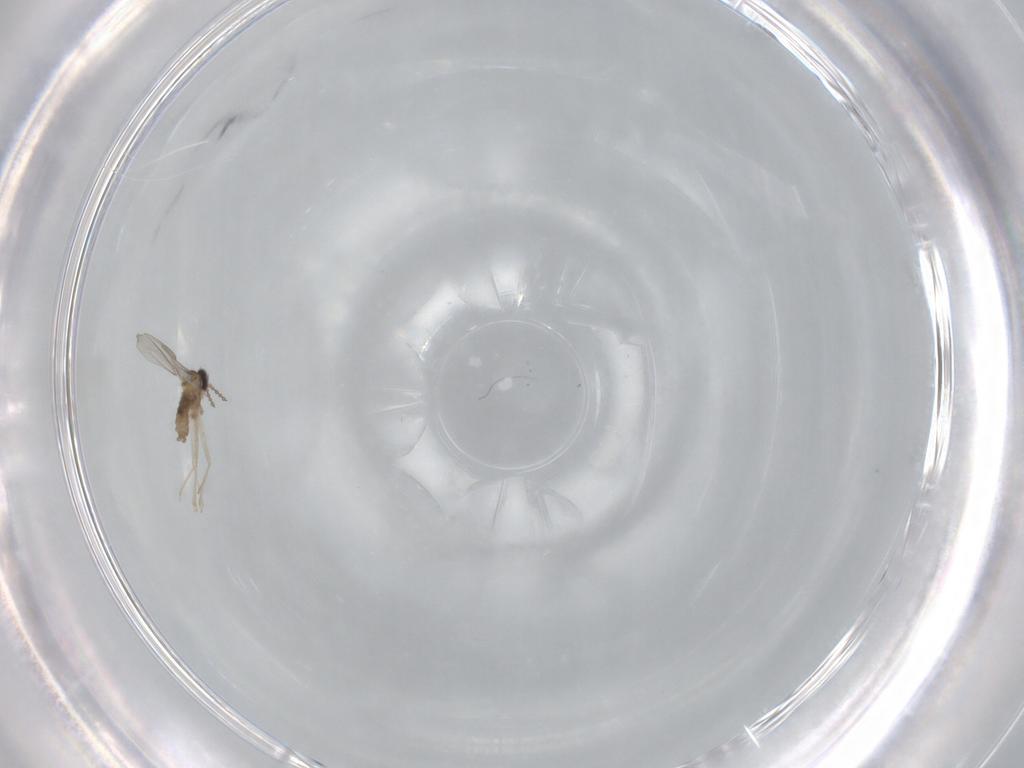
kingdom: Animalia
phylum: Arthropoda
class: Insecta
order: Diptera
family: Cecidomyiidae
